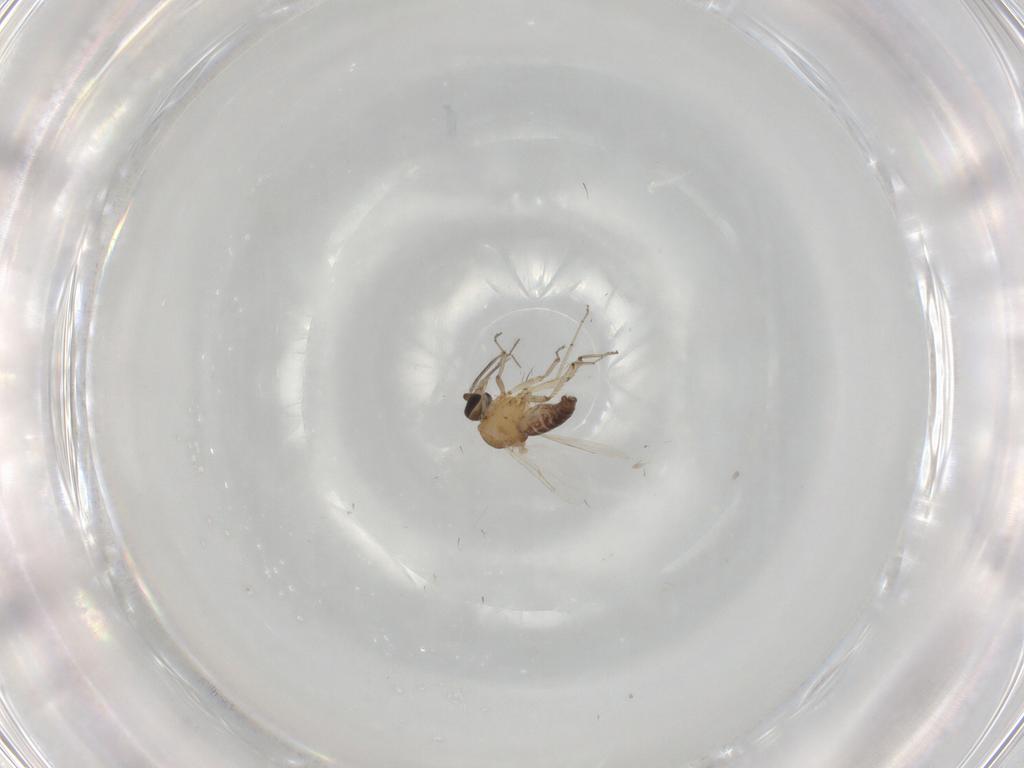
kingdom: Animalia
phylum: Arthropoda
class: Insecta
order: Diptera
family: Ceratopogonidae
